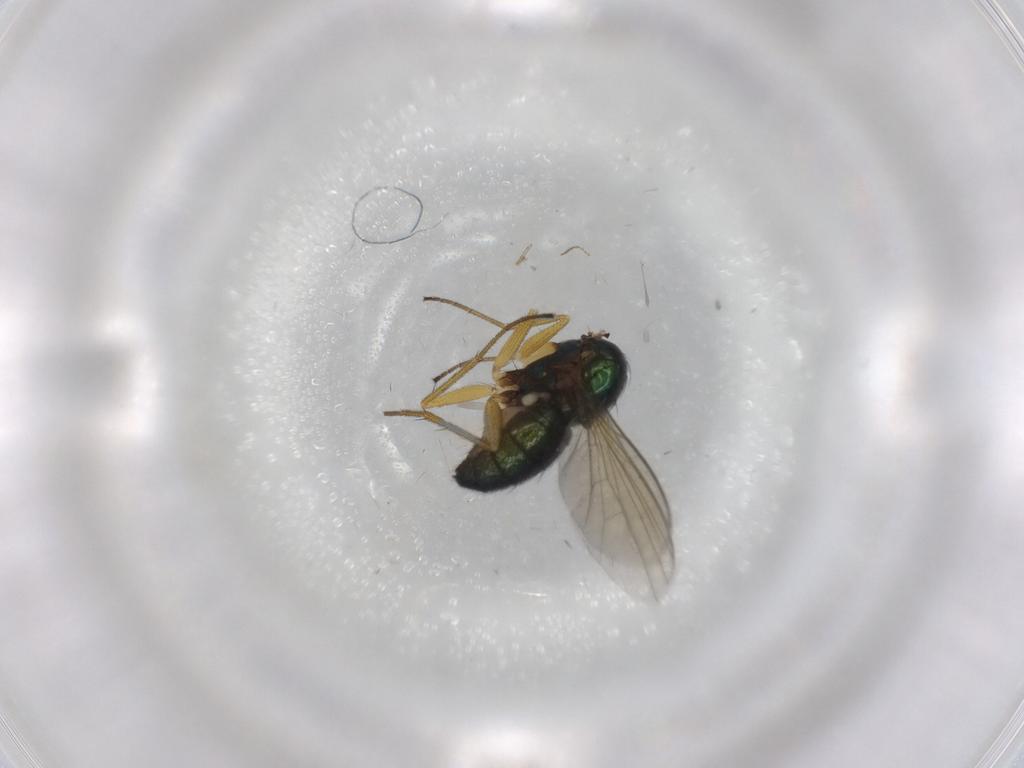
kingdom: Animalia
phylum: Arthropoda
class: Insecta
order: Diptera
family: Dolichopodidae
